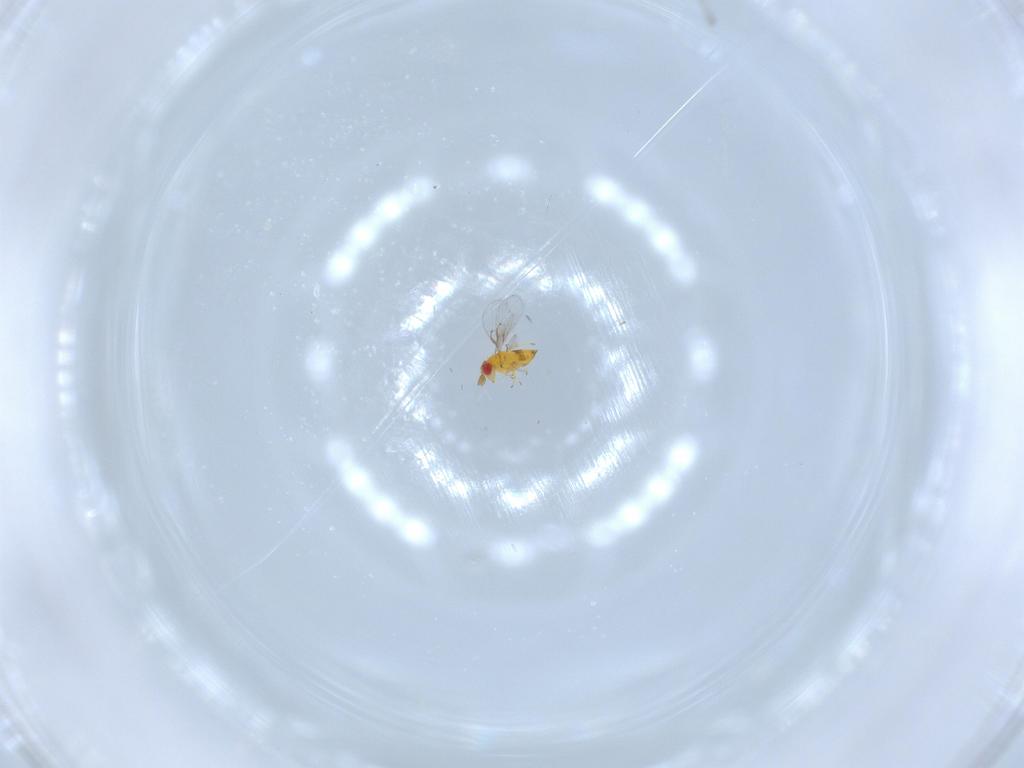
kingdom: Animalia
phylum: Arthropoda
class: Insecta
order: Hymenoptera
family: Trichogrammatidae
